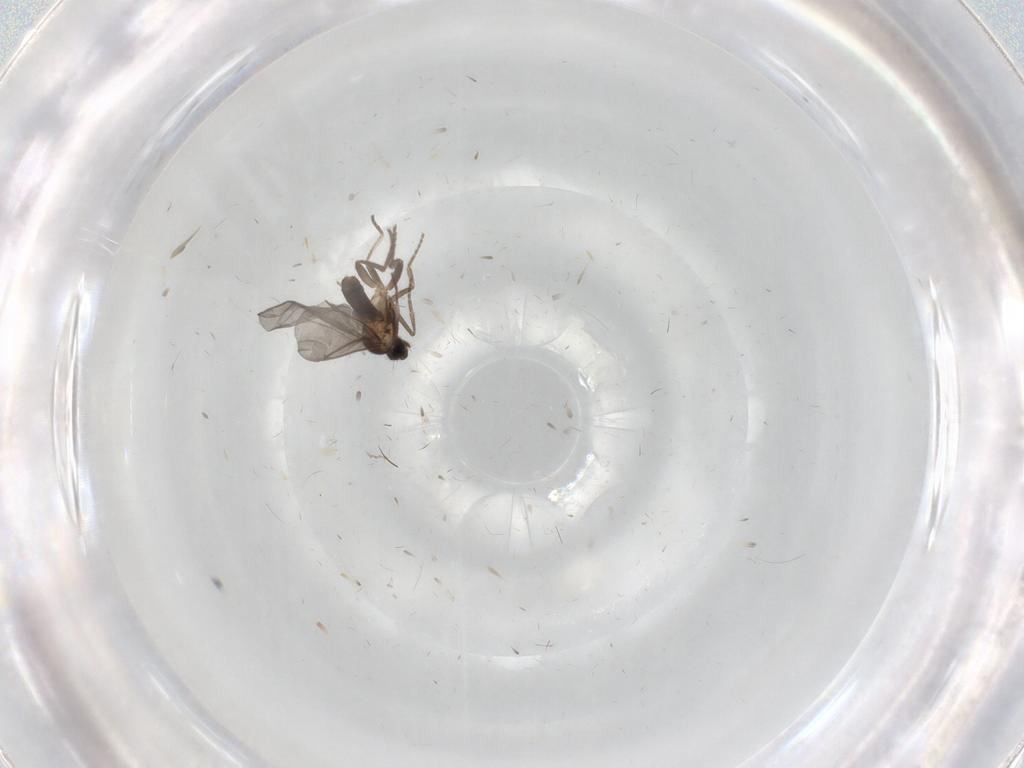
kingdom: Animalia
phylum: Arthropoda
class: Insecta
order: Diptera
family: Phoridae
